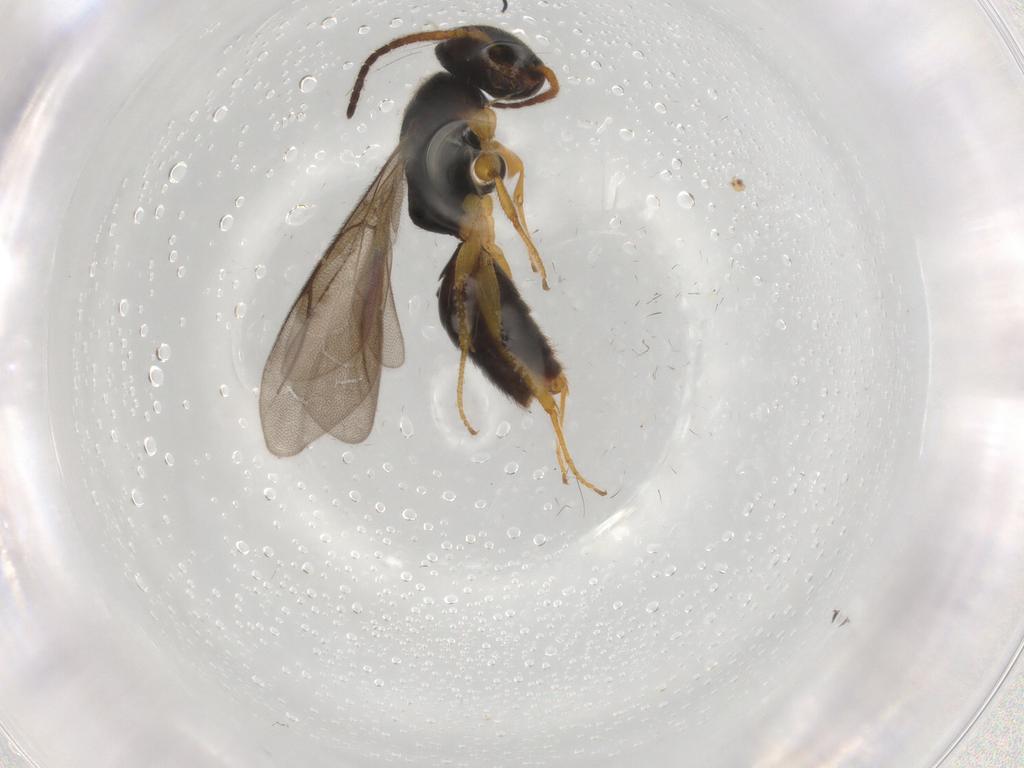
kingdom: Animalia
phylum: Arthropoda
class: Insecta
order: Hymenoptera
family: Bethylidae
